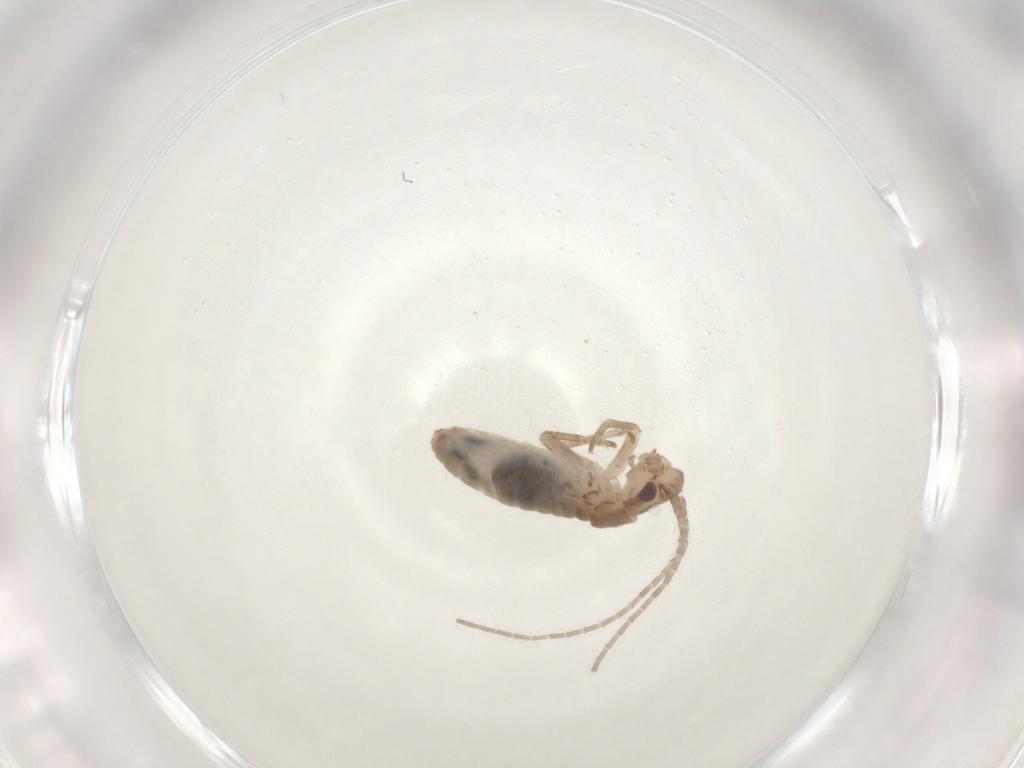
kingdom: Animalia
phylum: Arthropoda
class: Insecta
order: Orthoptera
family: Mogoplistidae
